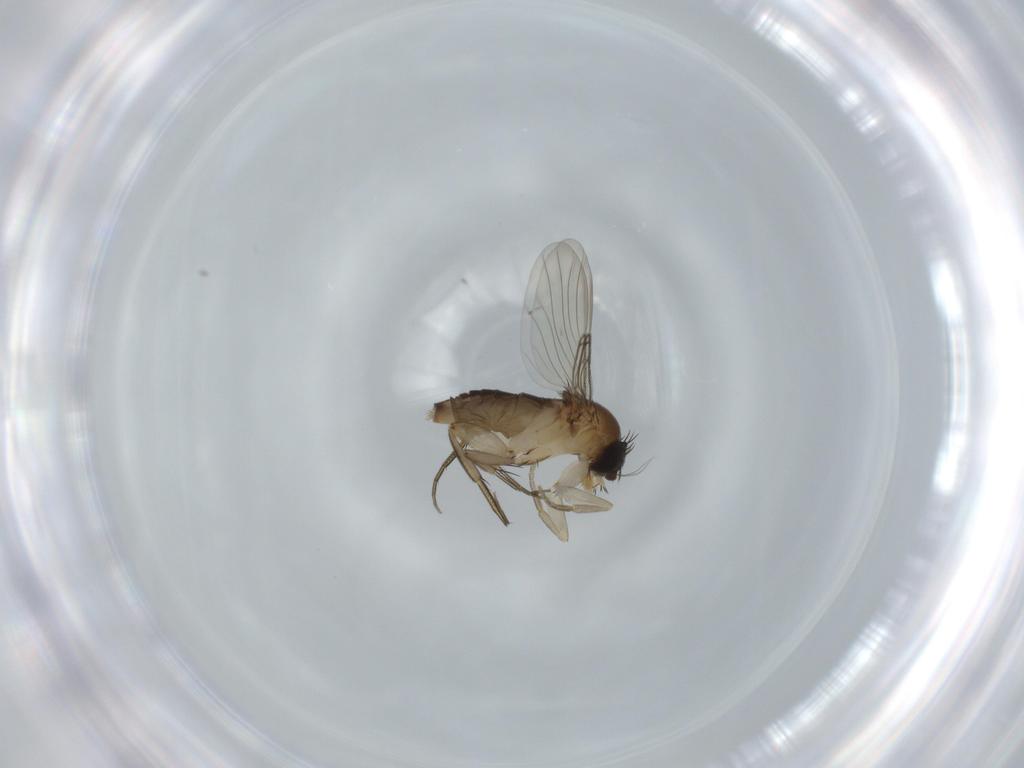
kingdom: Animalia
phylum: Arthropoda
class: Insecta
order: Diptera
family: Phoridae
